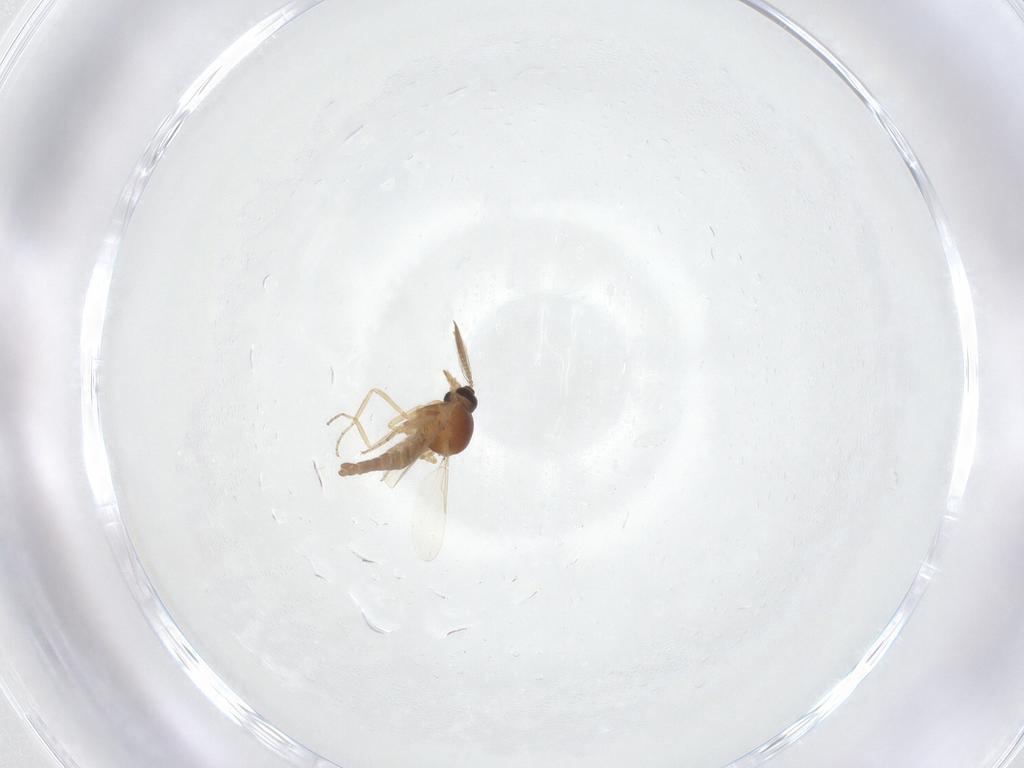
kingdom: Animalia
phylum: Arthropoda
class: Insecta
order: Diptera
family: Ceratopogonidae
